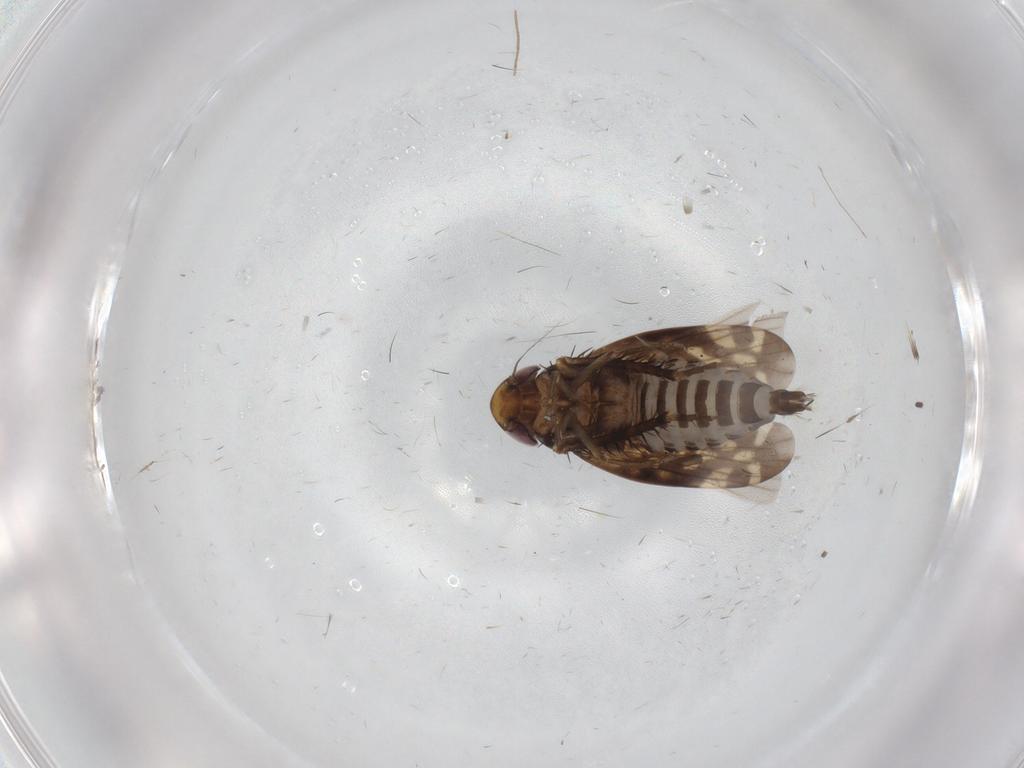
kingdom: Animalia
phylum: Arthropoda
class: Insecta
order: Hemiptera
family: Cicadellidae
